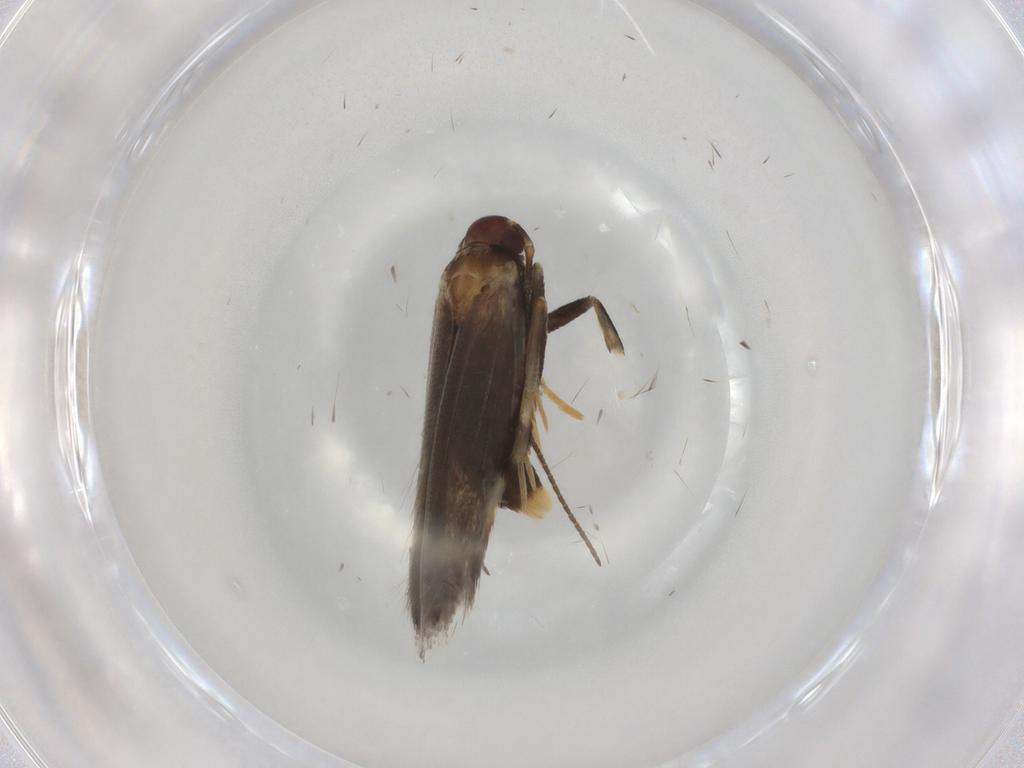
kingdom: Animalia
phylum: Arthropoda
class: Insecta
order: Lepidoptera
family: Cosmopterigidae
